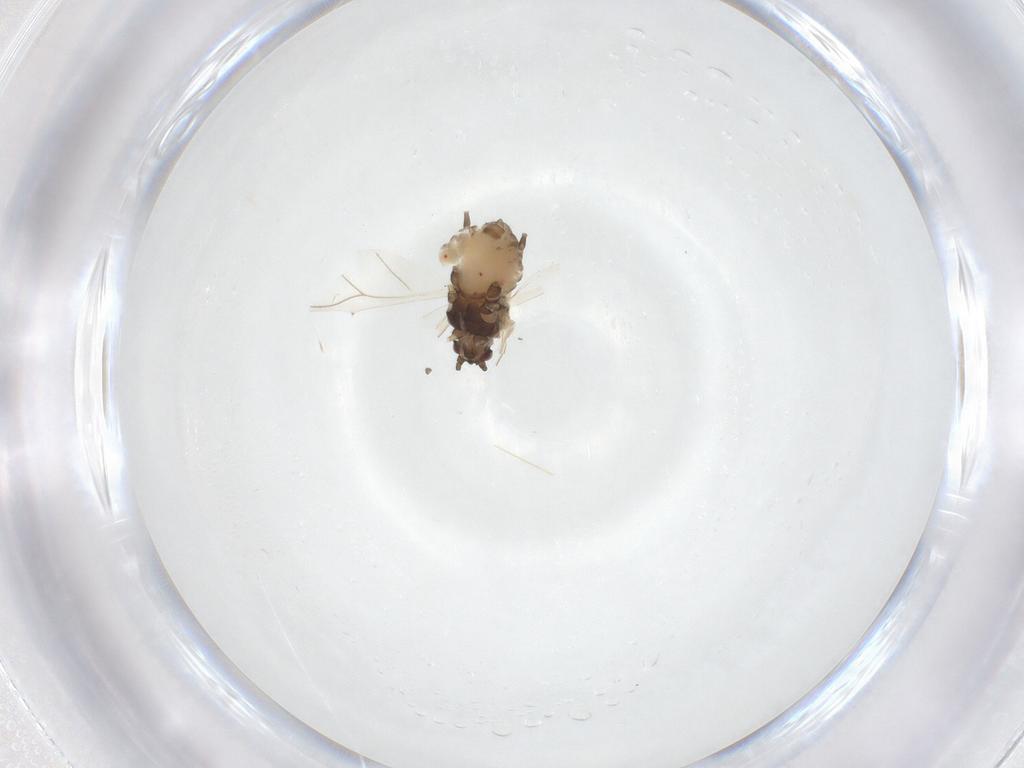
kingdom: Animalia
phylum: Arthropoda
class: Insecta
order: Hemiptera
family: Aphididae
